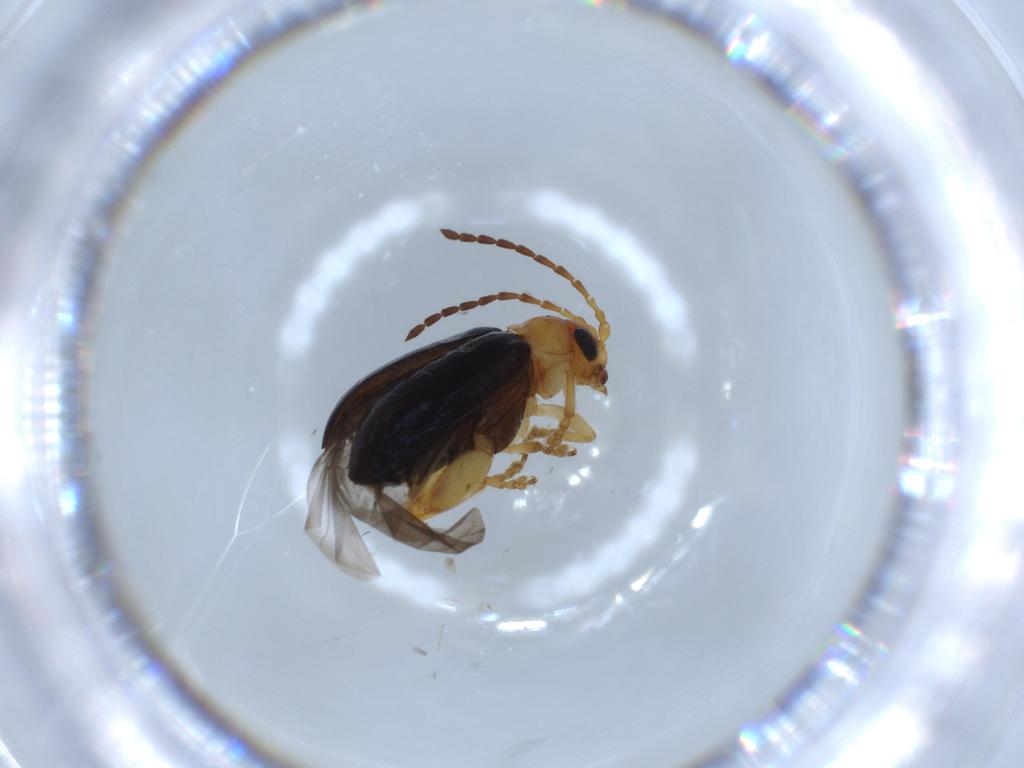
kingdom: Animalia
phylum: Arthropoda
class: Insecta
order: Coleoptera
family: Chrysomelidae
